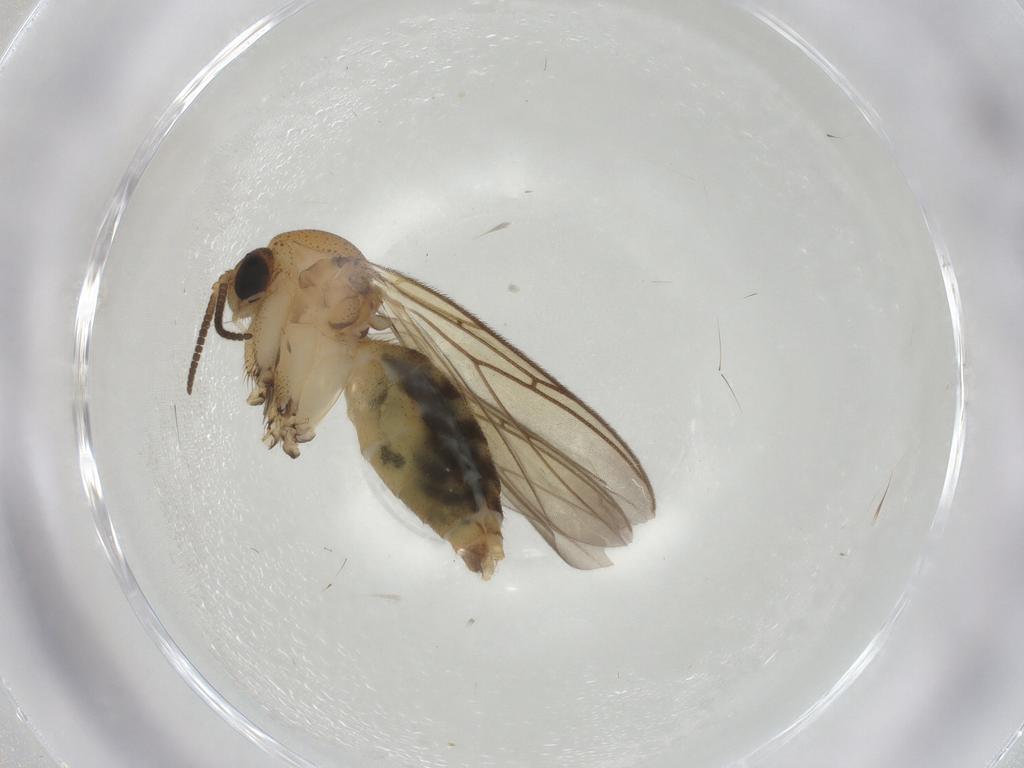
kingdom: Animalia
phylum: Arthropoda
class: Insecta
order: Diptera
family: Mycetophilidae
